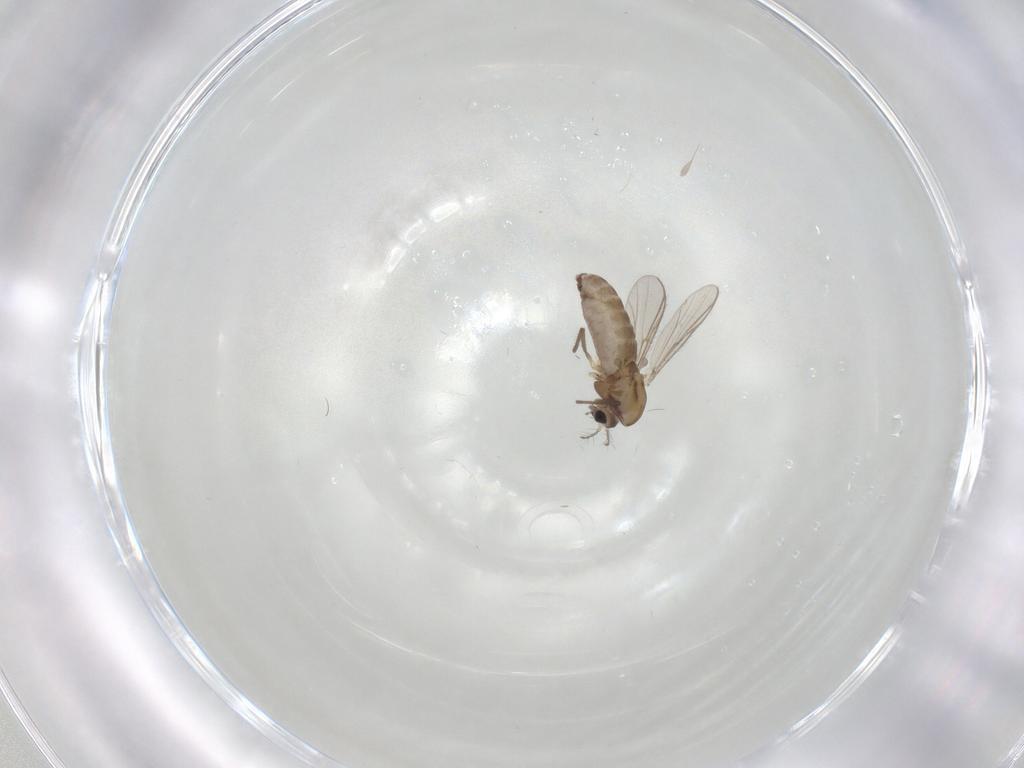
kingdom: Animalia
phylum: Arthropoda
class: Insecta
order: Diptera
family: Chironomidae
